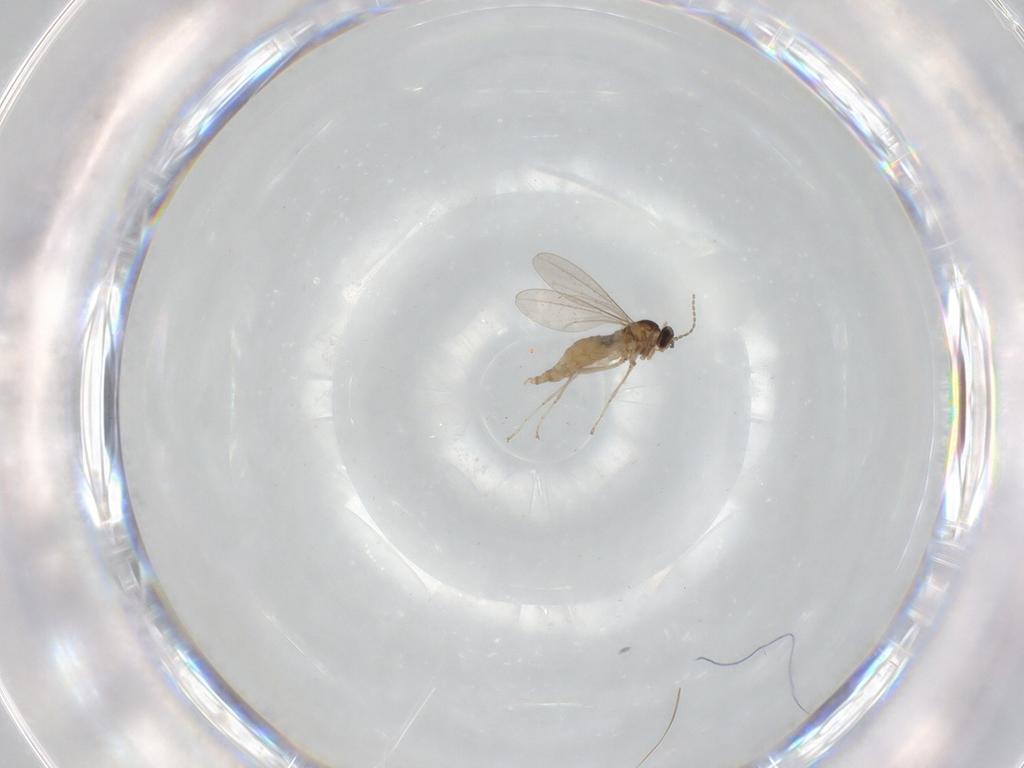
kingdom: Animalia
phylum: Arthropoda
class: Insecta
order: Diptera
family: Cecidomyiidae
